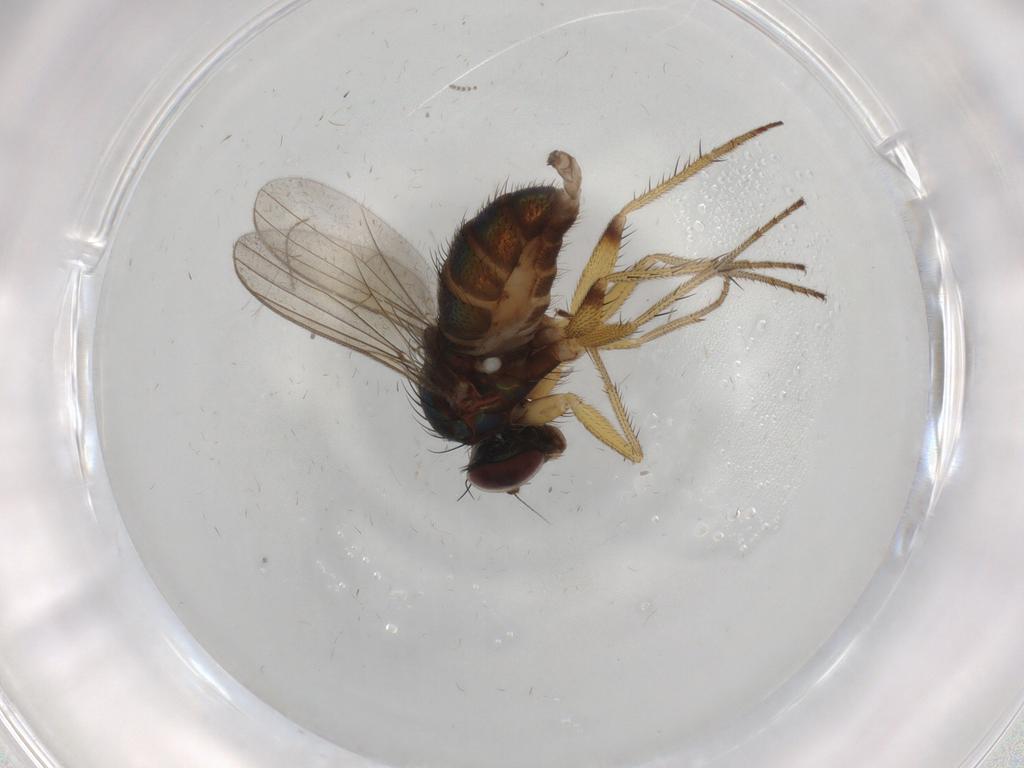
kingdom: Animalia
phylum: Arthropoda
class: Insecta
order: Diptera
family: Dolichopodidae
